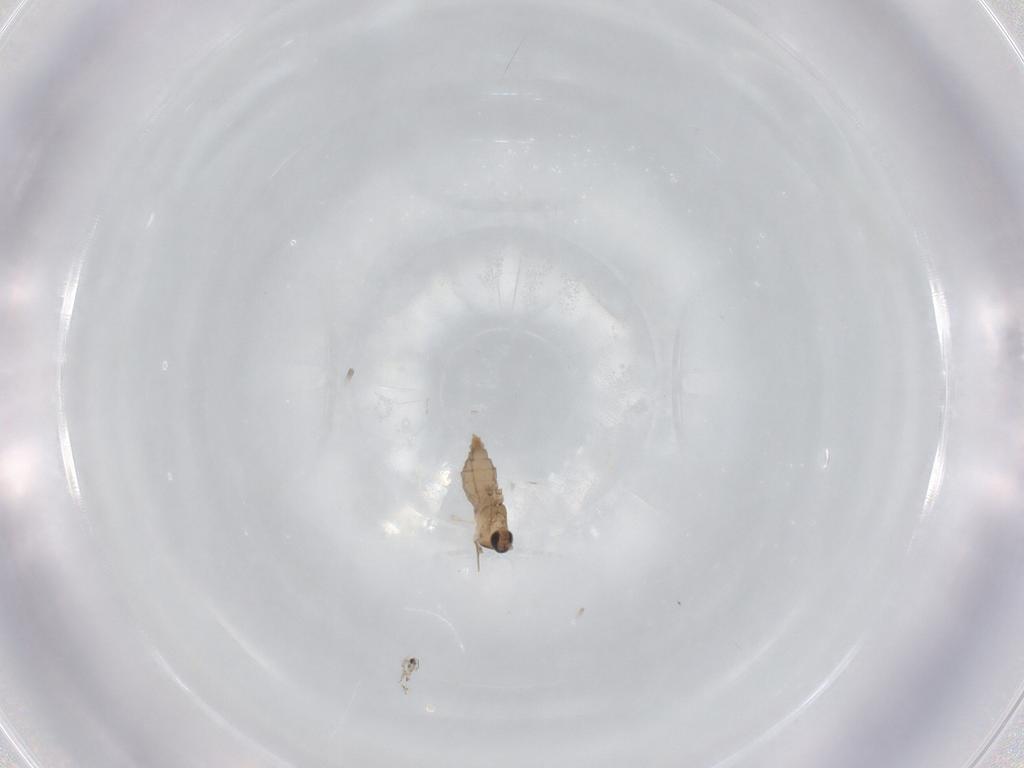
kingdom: Animalia
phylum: Arthropoda
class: Insecta
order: Diptera
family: Cecidomyiidae
